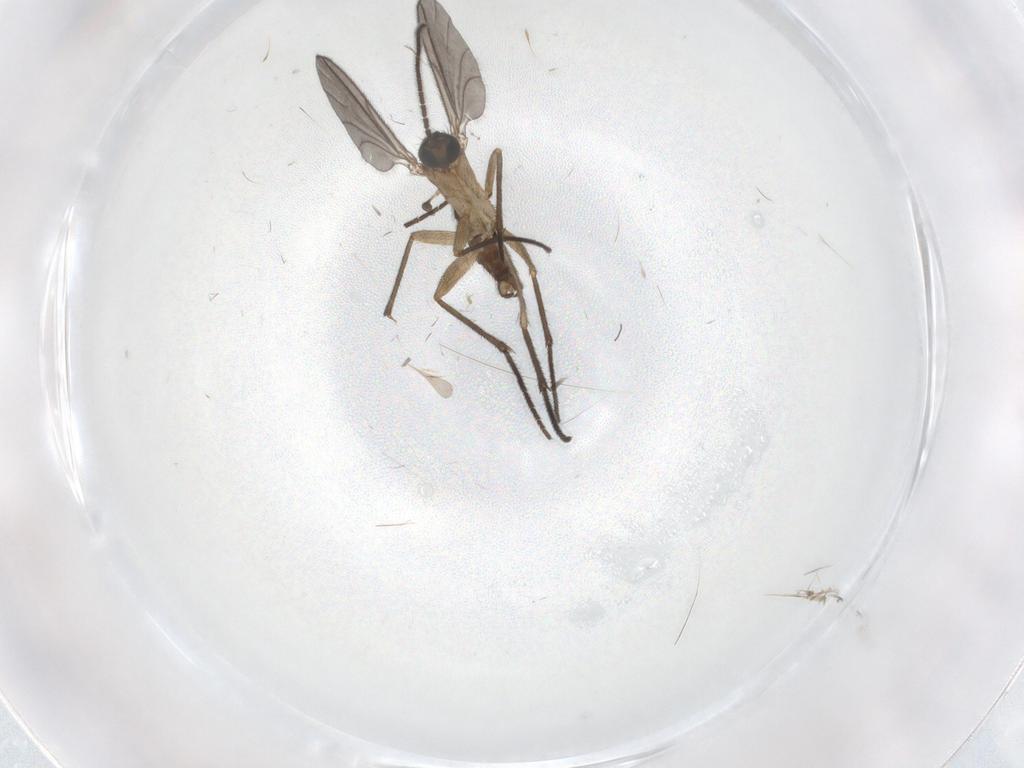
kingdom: Animalia
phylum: Arthropoda
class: Insecta
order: Diptera
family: Sciaridae
